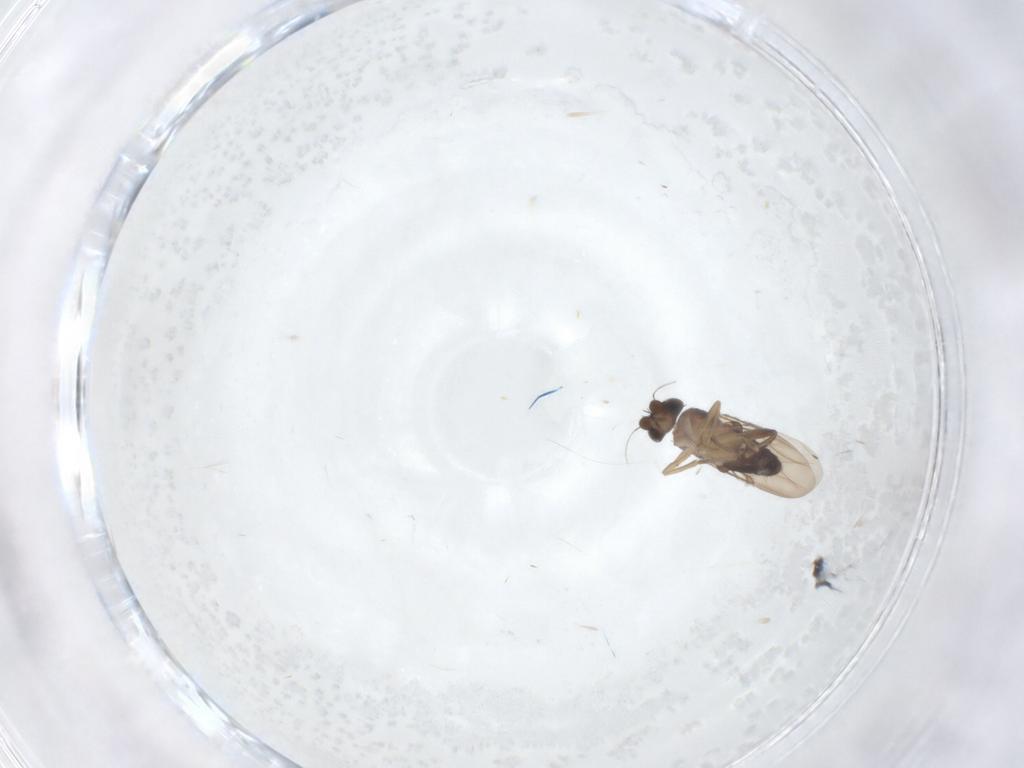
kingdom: Animalia
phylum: Arthropoda
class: Insecta
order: Diptera
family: Phoridae
